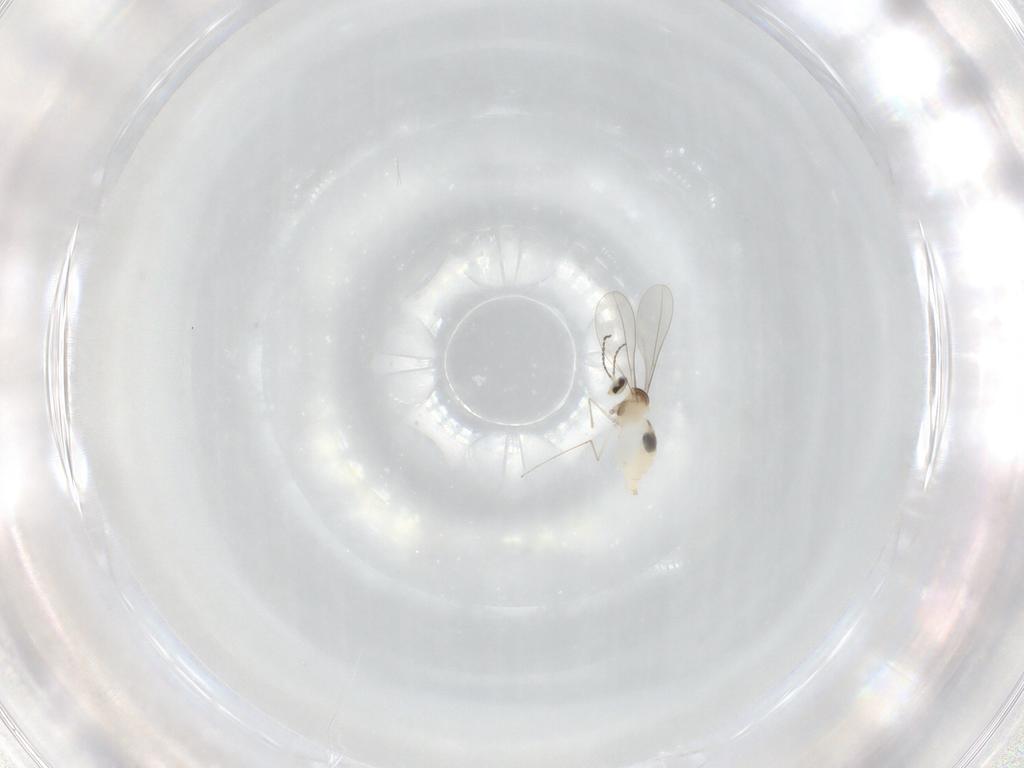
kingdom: Animalia
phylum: Arthropoda
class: Insecta
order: Diptera
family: Cecidomyiidae
